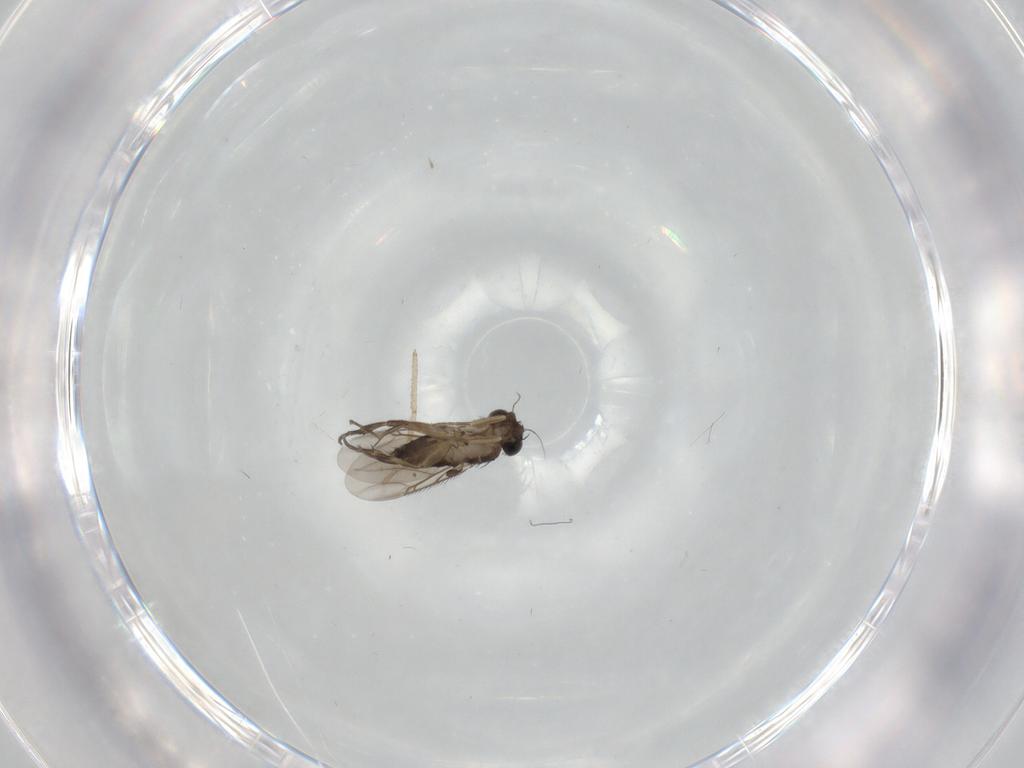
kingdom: Animalia
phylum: Arthropoda
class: Insecta
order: Diptera
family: Phoridae
